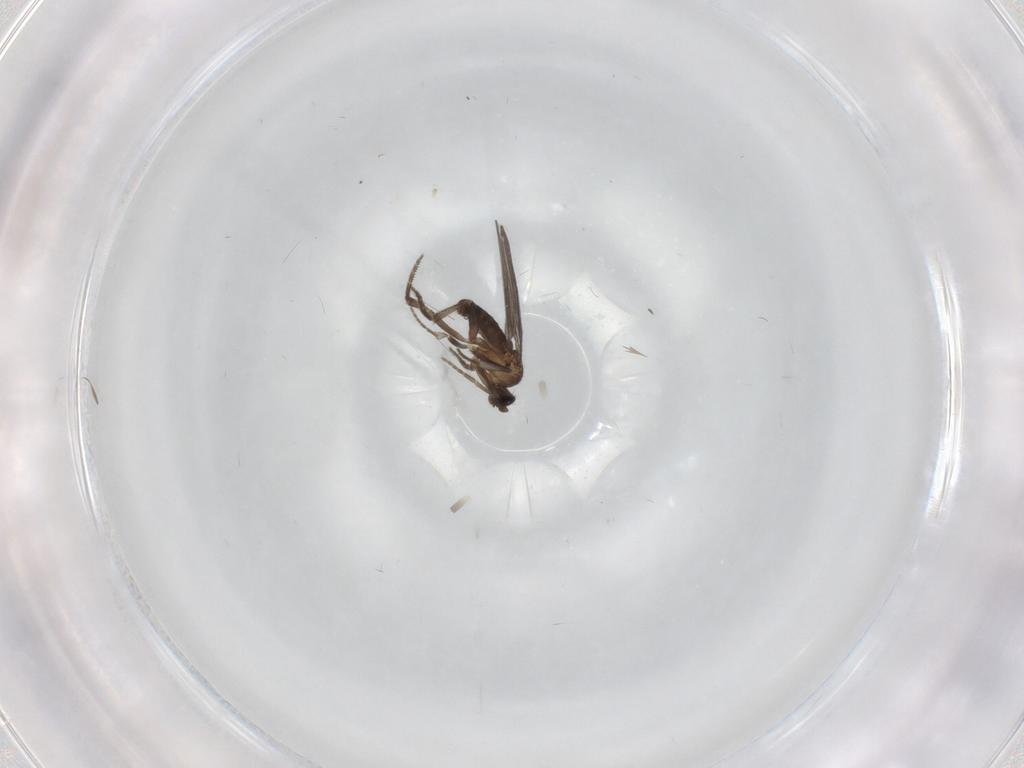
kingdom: Animalia
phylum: Arthropoda
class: Insecta
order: Diptera
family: Phoridae
